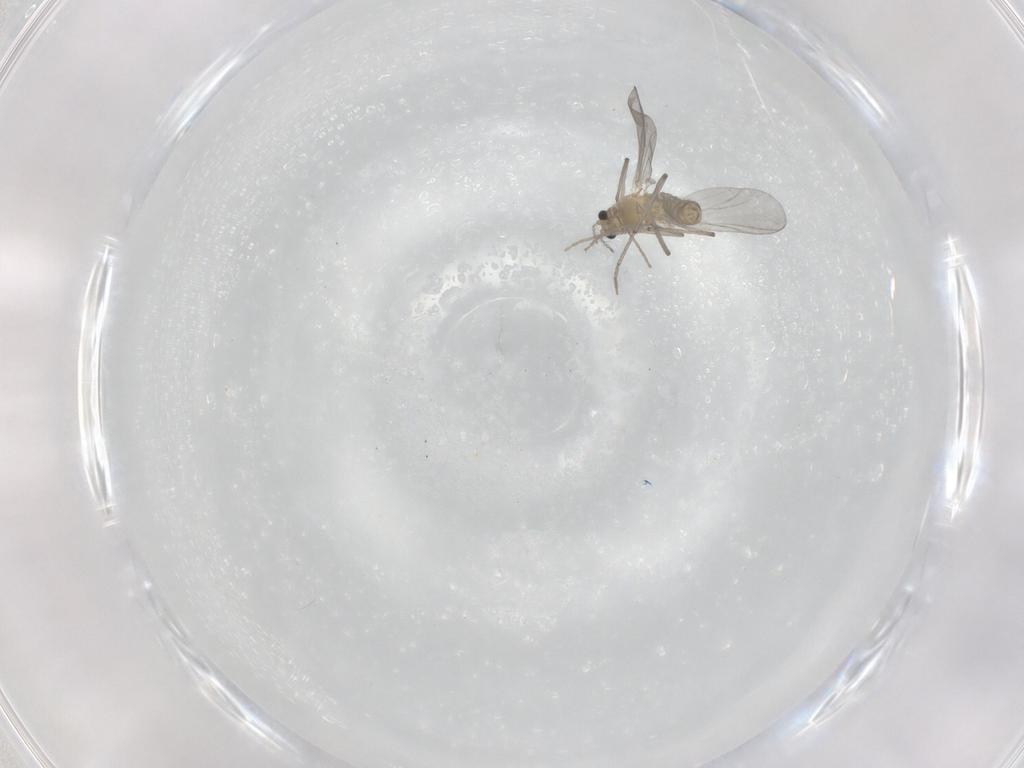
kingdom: Animalia
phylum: Arthropoda
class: Insecta
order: Diptera
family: Chironomidae
